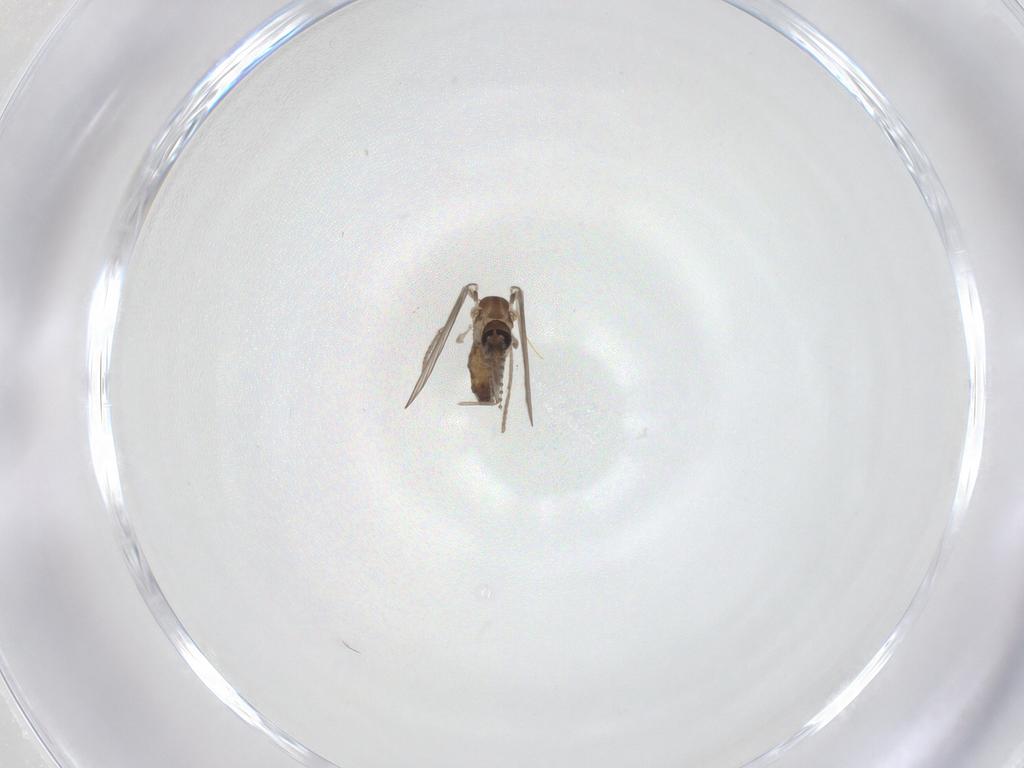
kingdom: Animalia
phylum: Arthropoda
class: Insecta
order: Diptera
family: Psychodidae
